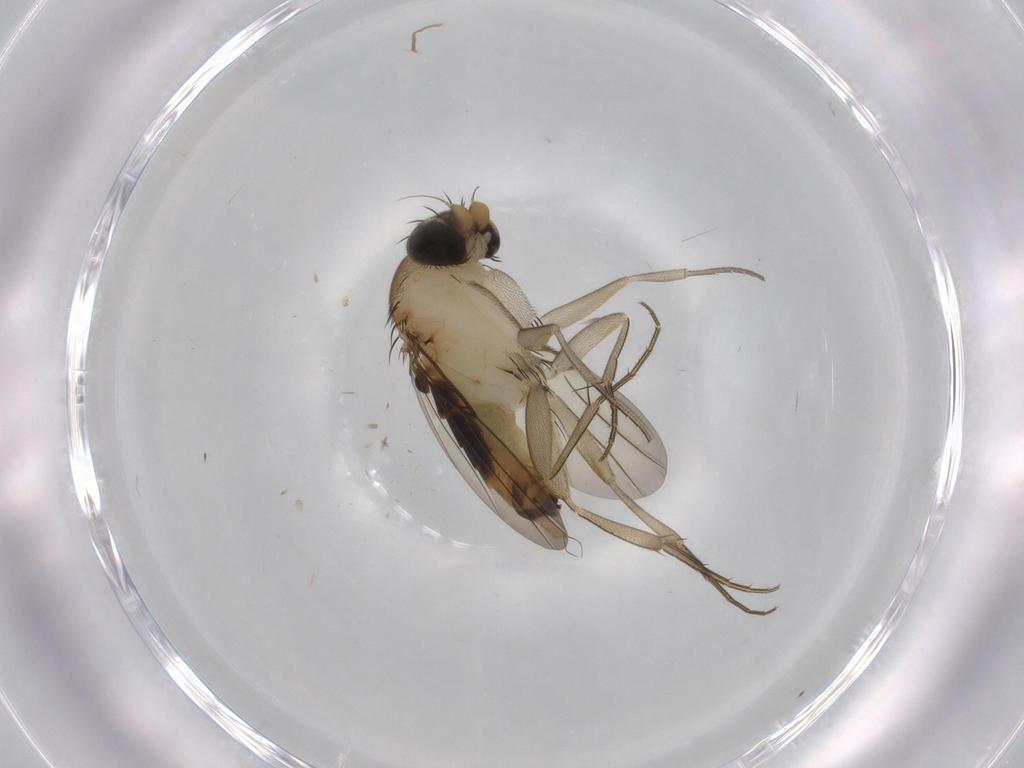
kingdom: Animalia
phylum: Arthropoda
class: Insecta
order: Diptera
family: Phoridae
